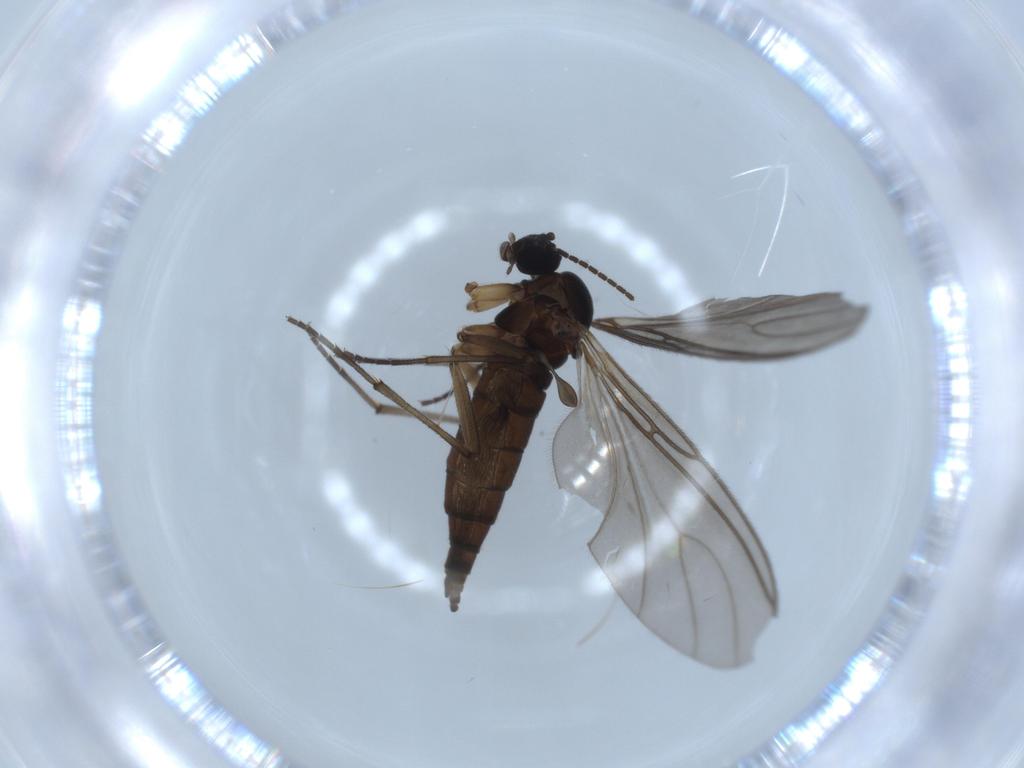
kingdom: Animalia
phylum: Arthropoda
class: Insecta
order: Diptera
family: Sciaridae
